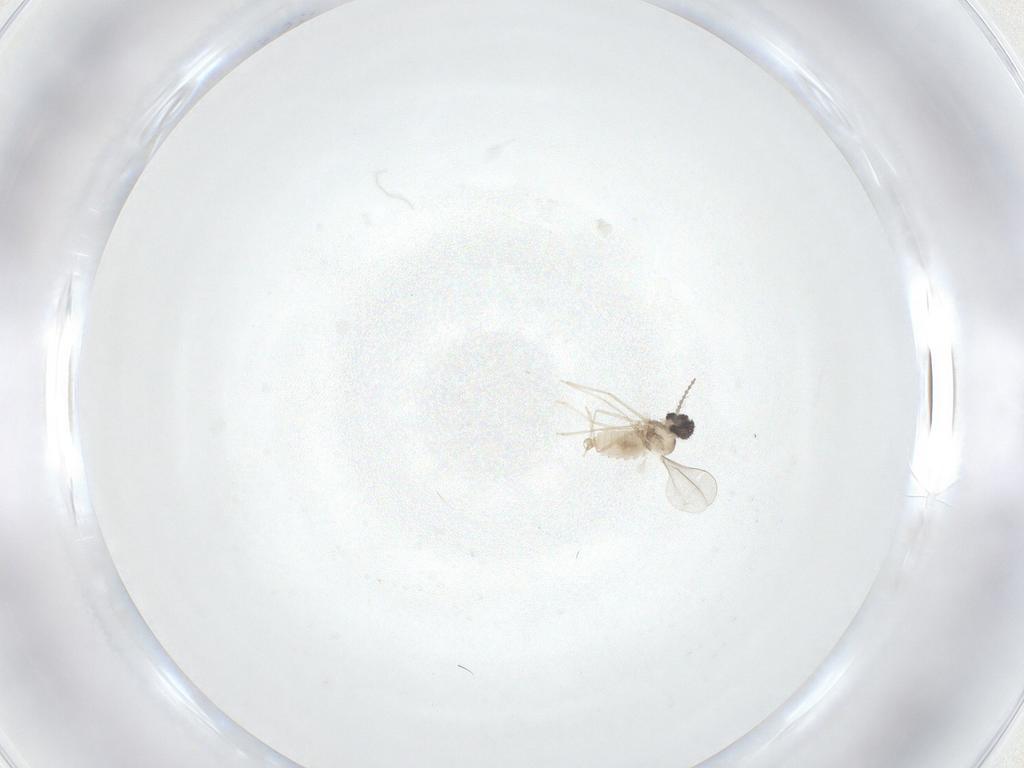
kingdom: Animalia
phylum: Arthropoda
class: Insecta
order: Diptera
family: Cecidomyiidae
